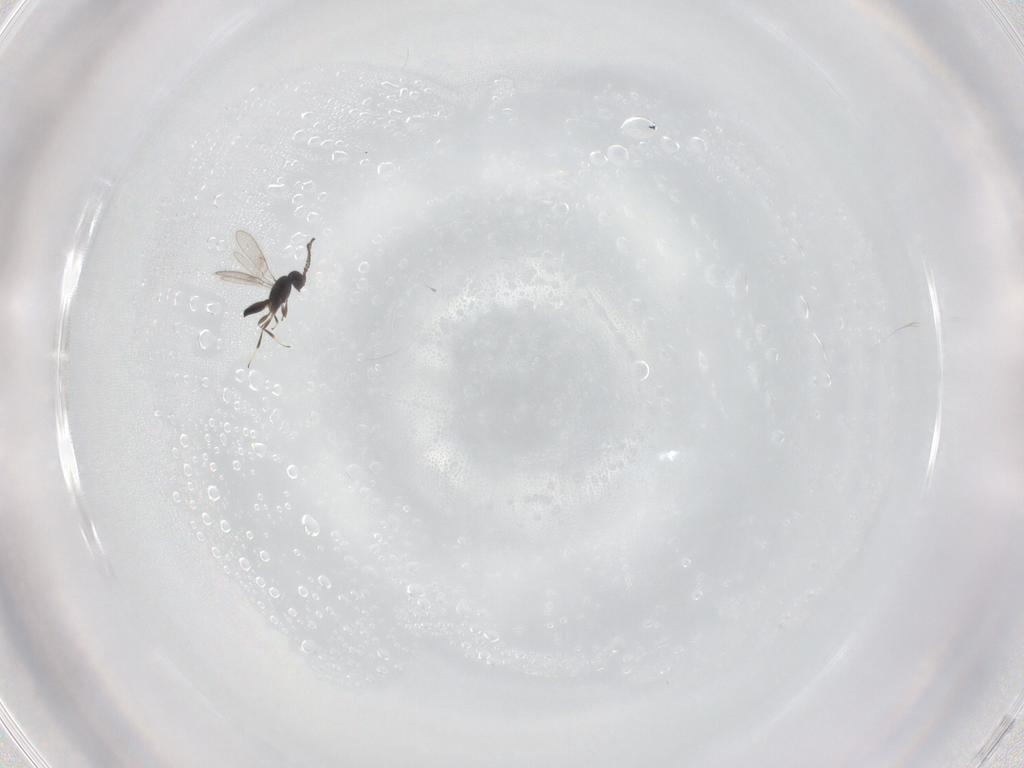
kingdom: Animalia
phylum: Arthropoda
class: Insecta
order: Hymenoptera
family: Scelionidae
